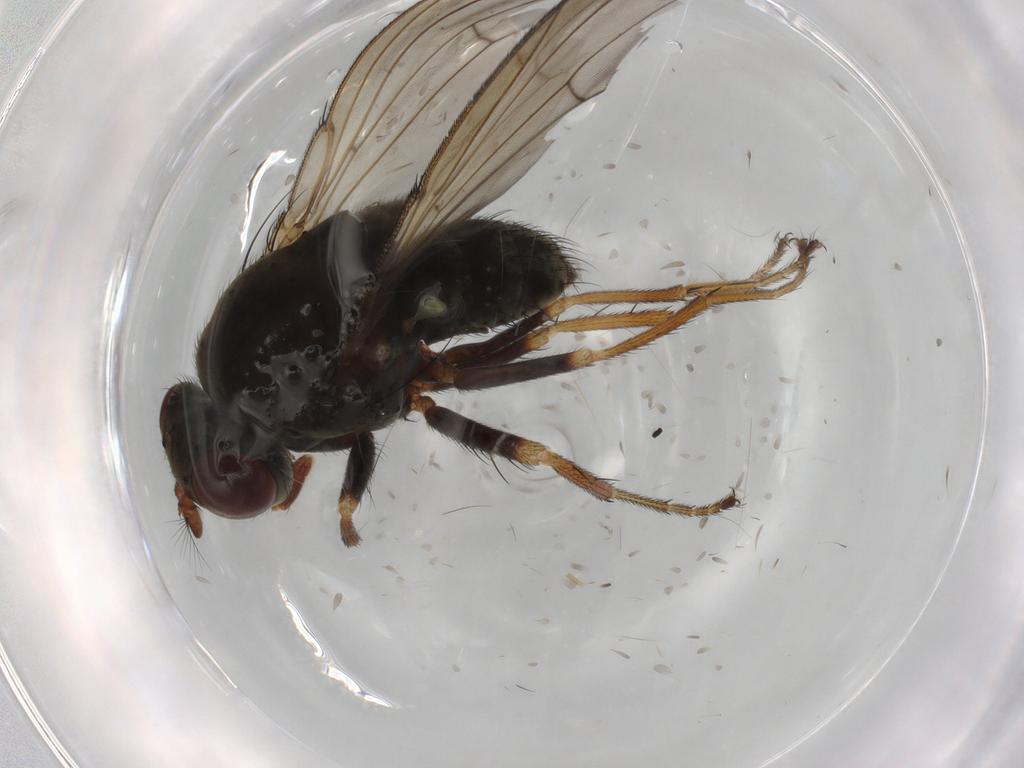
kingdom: Animalia
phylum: Arthropoda
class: Insecta
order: Diptera
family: Ephydridae
